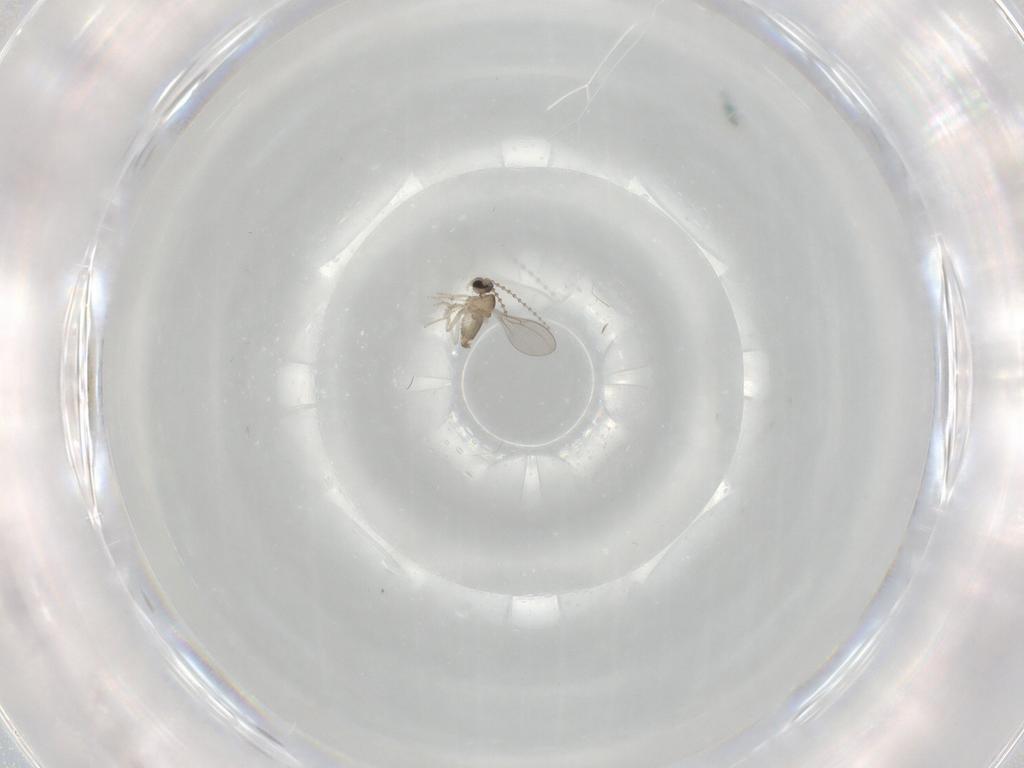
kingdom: Animalia
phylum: Arthropoda
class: Insecta
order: Diptera
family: Cecidomyiidae
